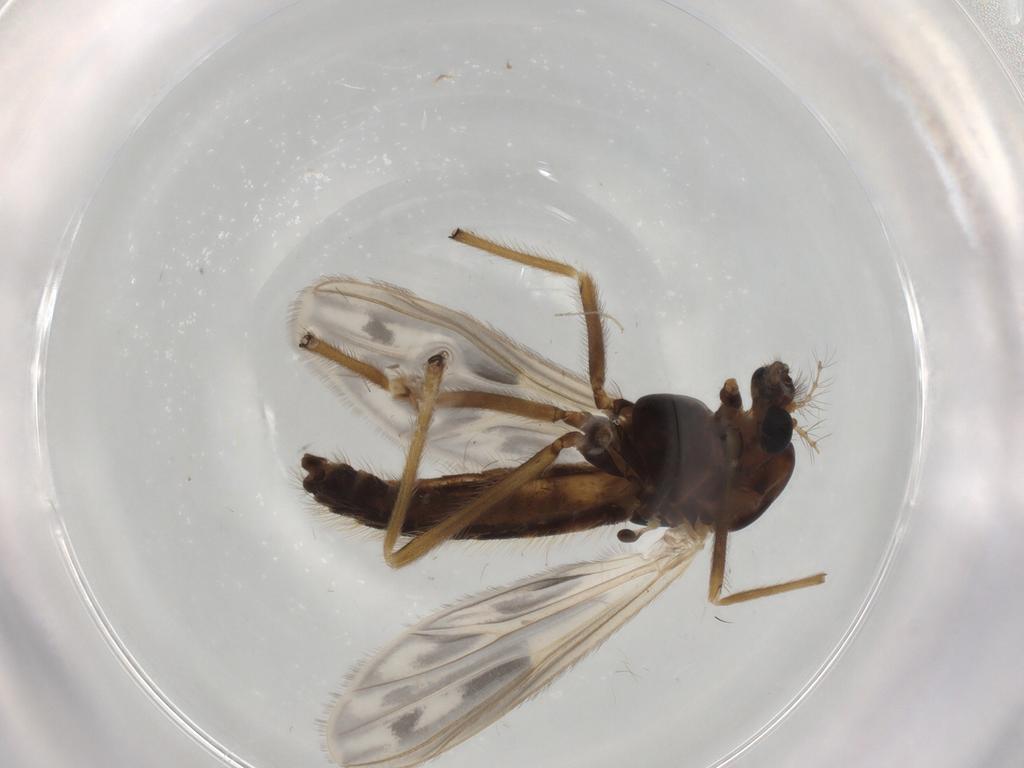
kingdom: Animalia
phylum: Arthropoda
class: Insecta
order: Diptera
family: Chironomidae
